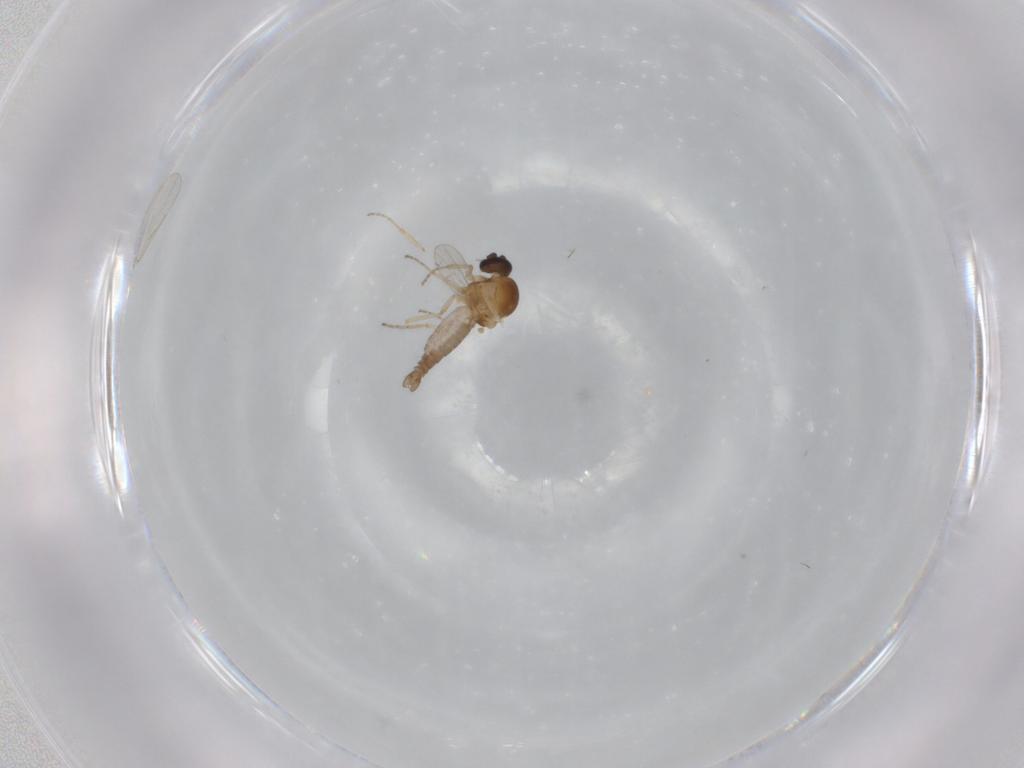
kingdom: Animalia
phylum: Arthropoda
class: Insecta
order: Diptera
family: Ceratopogonidae
